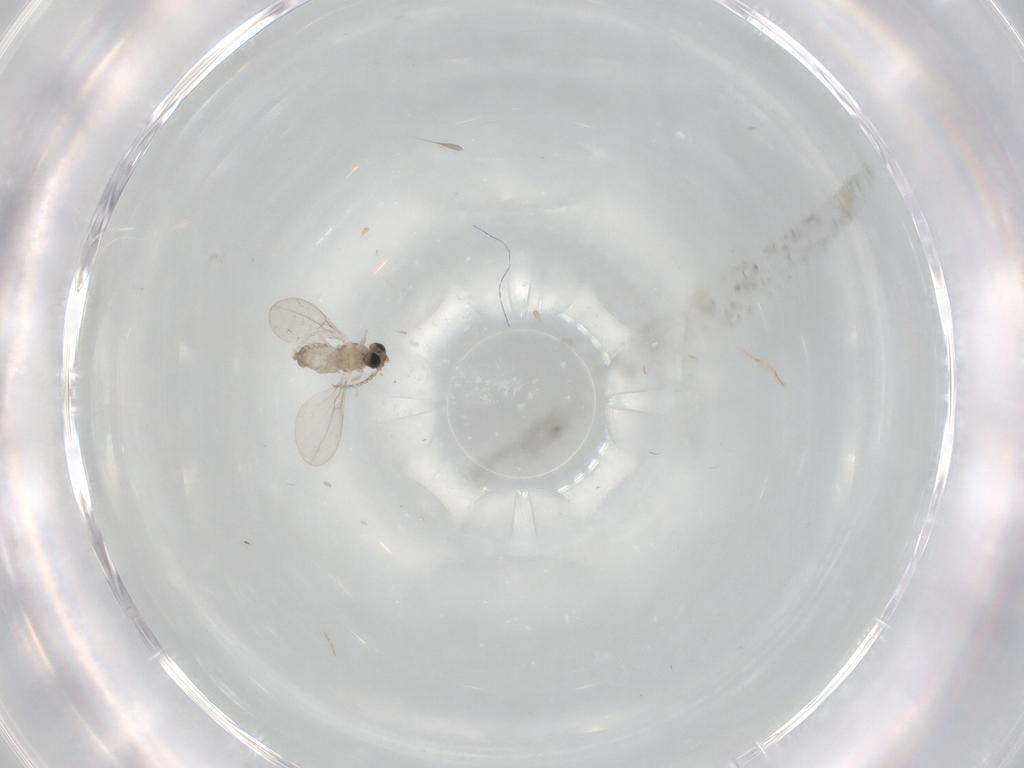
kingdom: Animalia
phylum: Arthropoda
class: Insecta
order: Diptera
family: Cecidomyiidae
